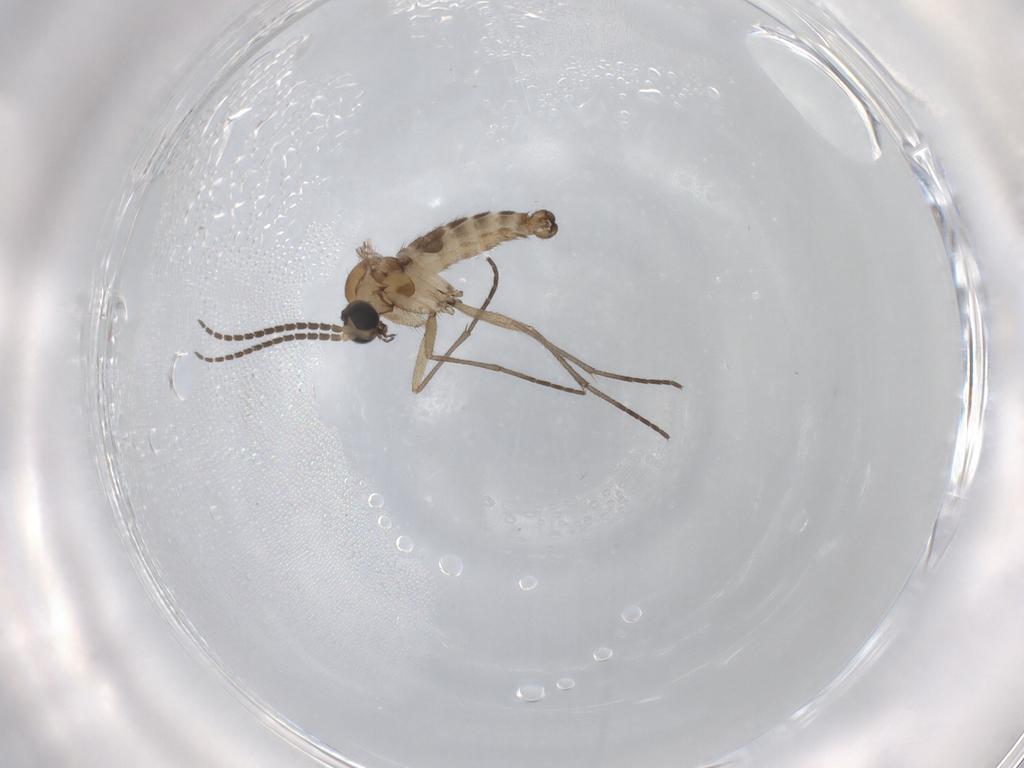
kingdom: Animalia
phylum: Arthropoda
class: Insecta
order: Diptera
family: Sciaridae
